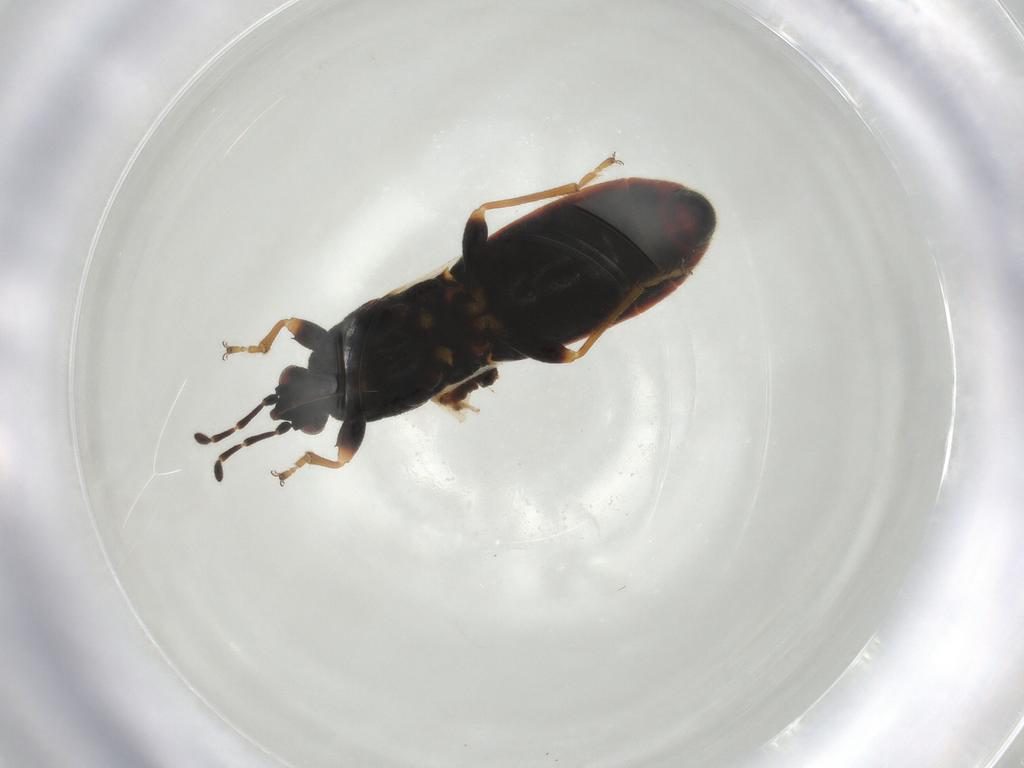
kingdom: Animalia
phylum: Arthropoda
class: Insecta
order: Hemiptera
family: Blissidae
